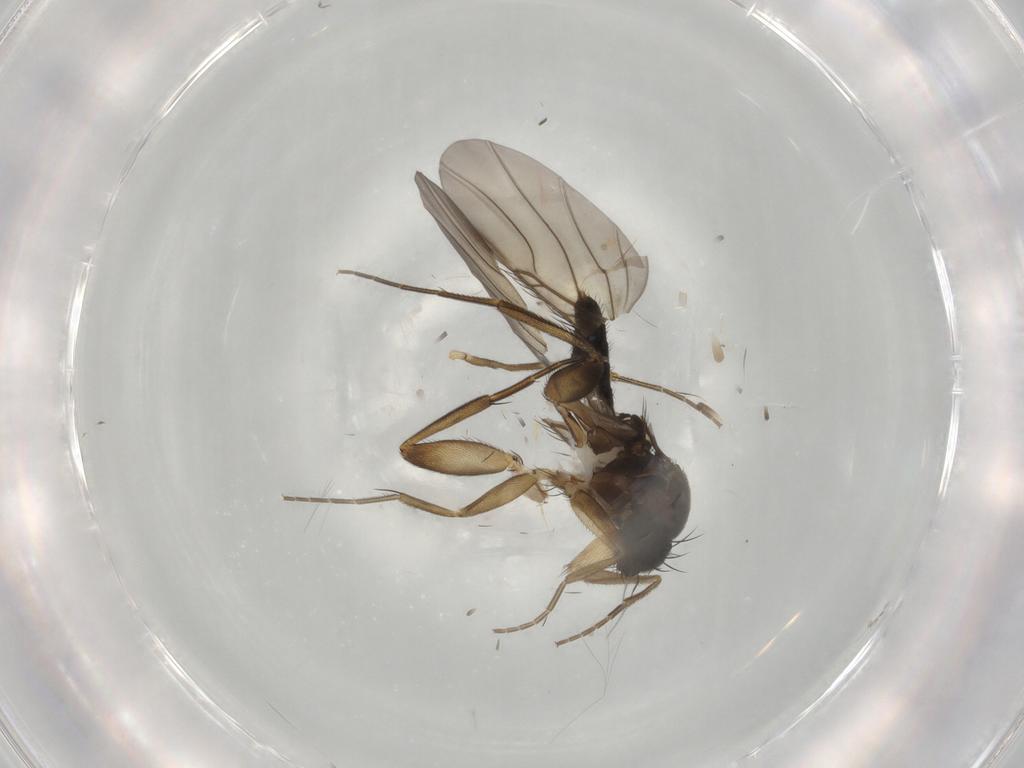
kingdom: Animalia
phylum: Arthropoda
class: Insecta
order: Diptera
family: Phoridae
